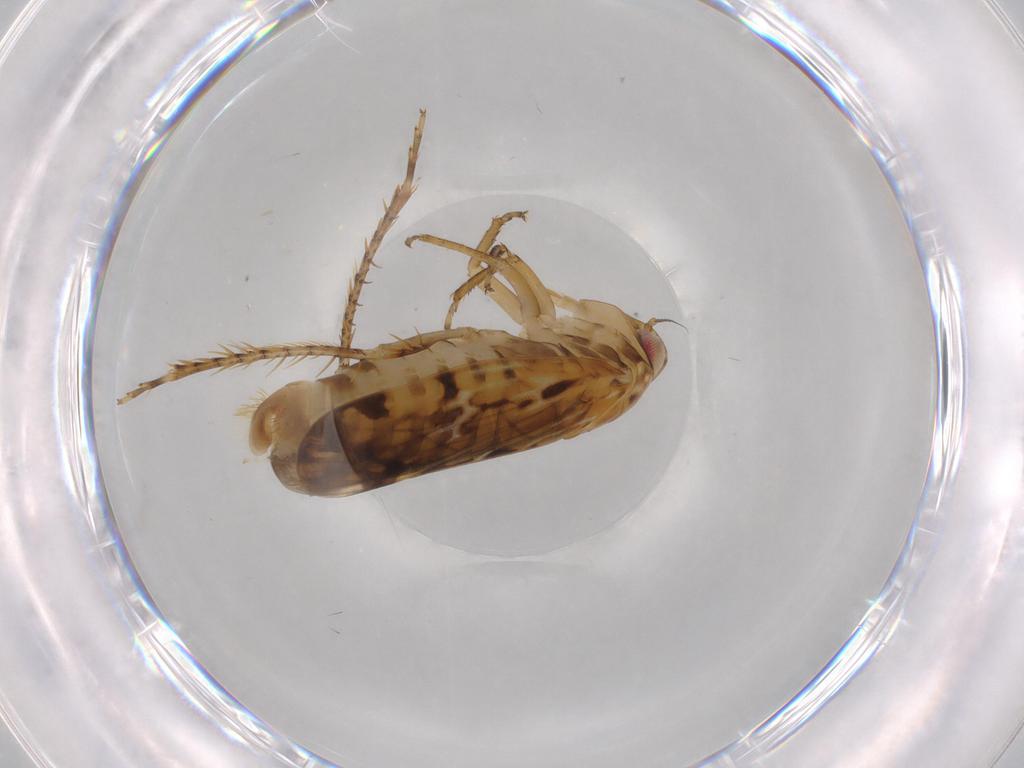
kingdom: Animalia
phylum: Arthropoda
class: Insecta
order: Hemiptera
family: Cicadellidae
